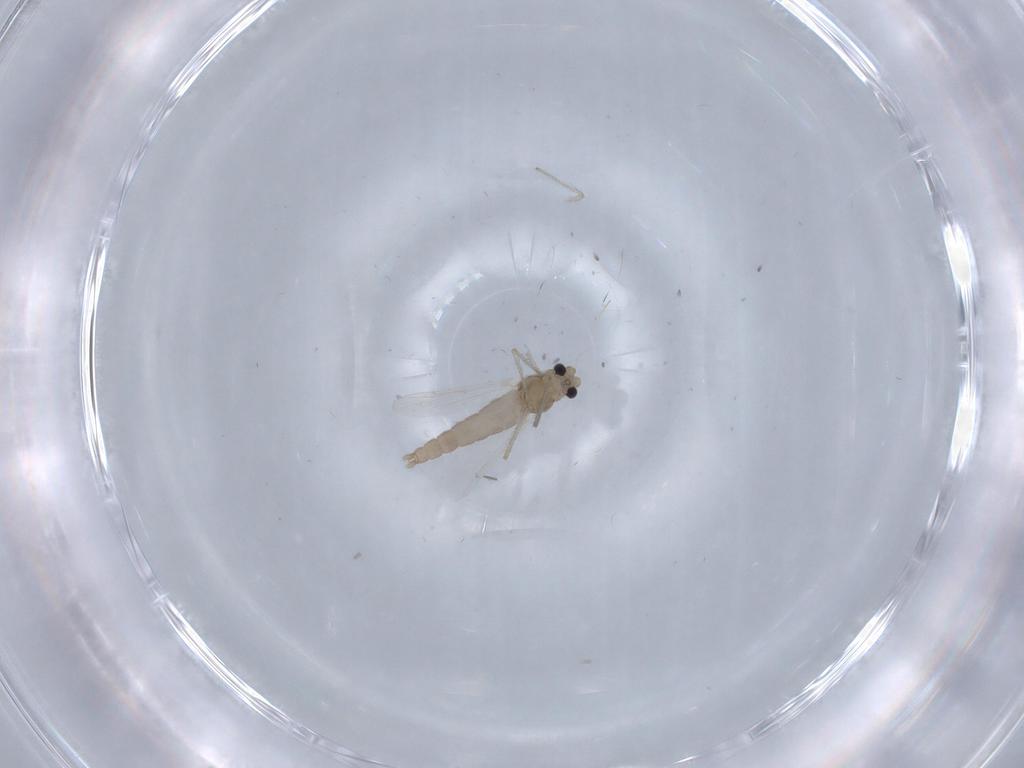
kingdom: Animalia
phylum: Arthropoda
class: Insecta
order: Diptera
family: Chironomidae
